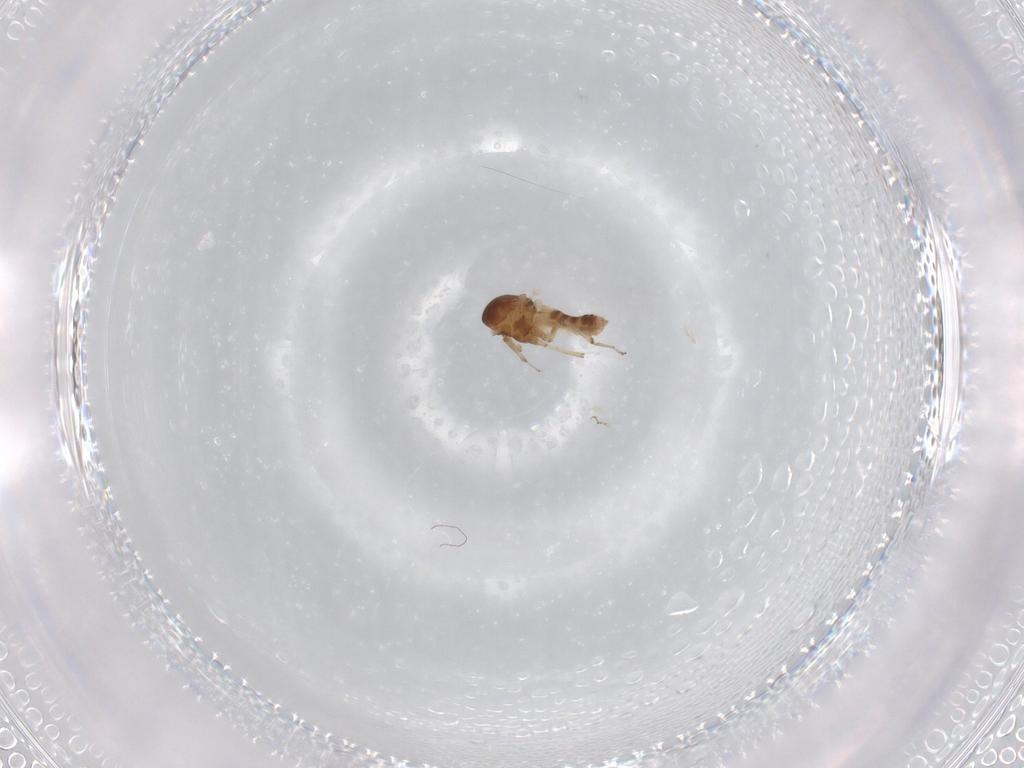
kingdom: Animalia
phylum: Arthropoda
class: Insecta
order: Diptera
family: Ceratopogonidae
